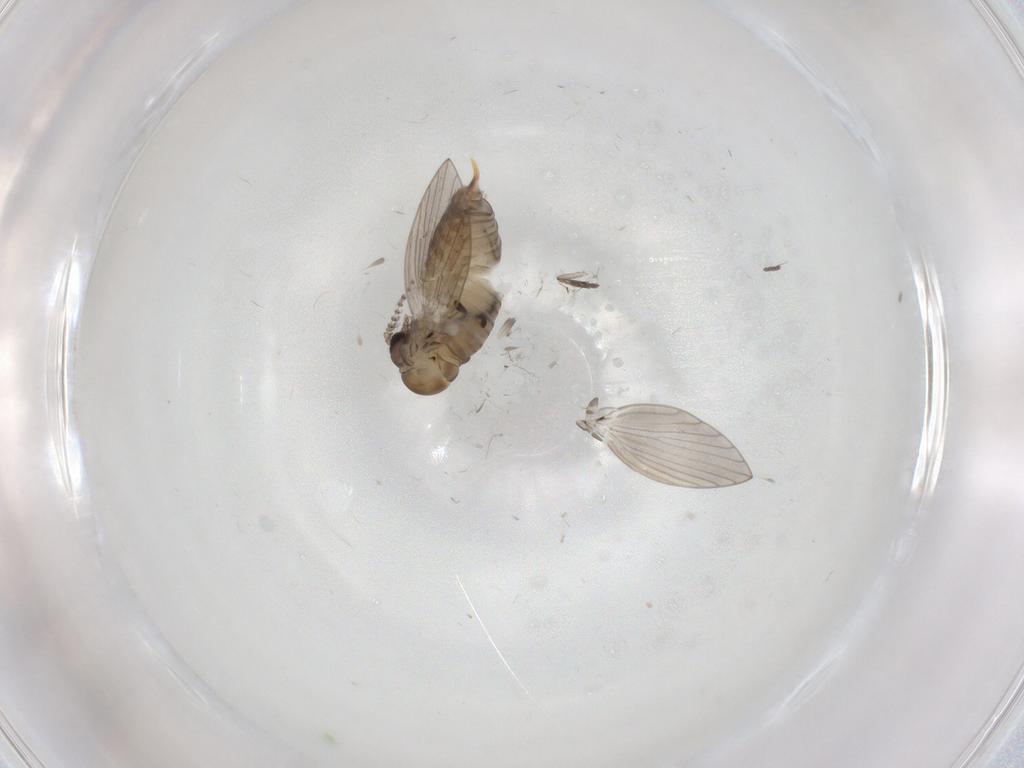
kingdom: Animalia
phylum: Arthropoda
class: Insecta
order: Diptera
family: Psychodidae
